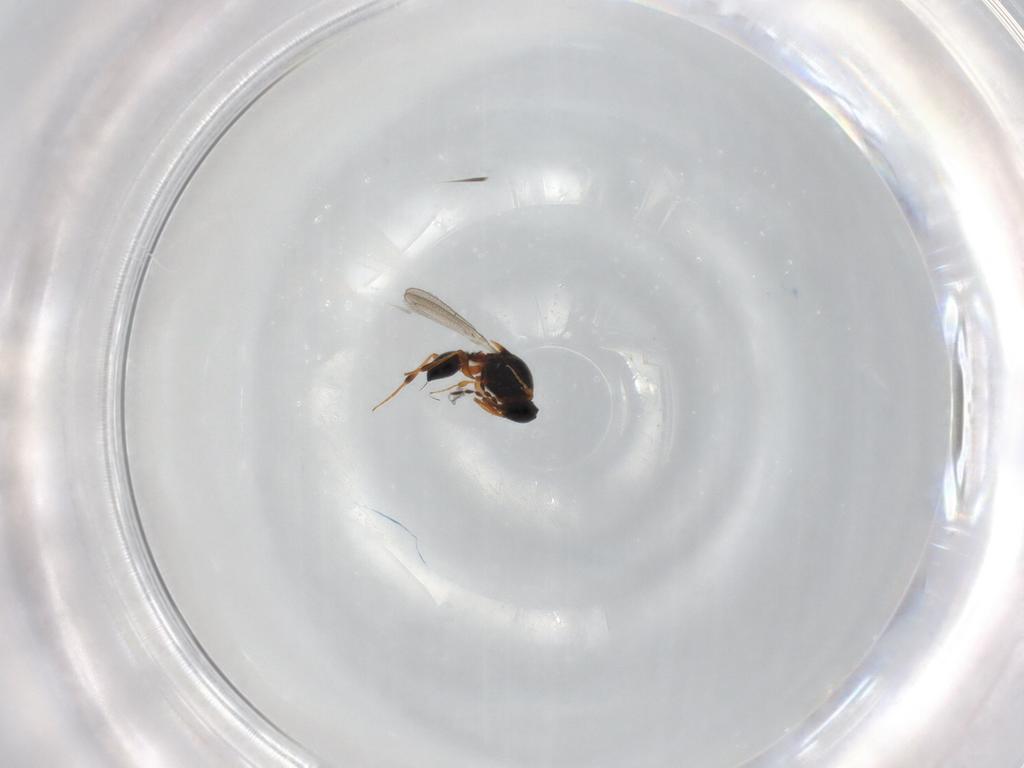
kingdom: Animalia
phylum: Arthropoda
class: Insecta
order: Hymenoptera
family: Platygastridae
